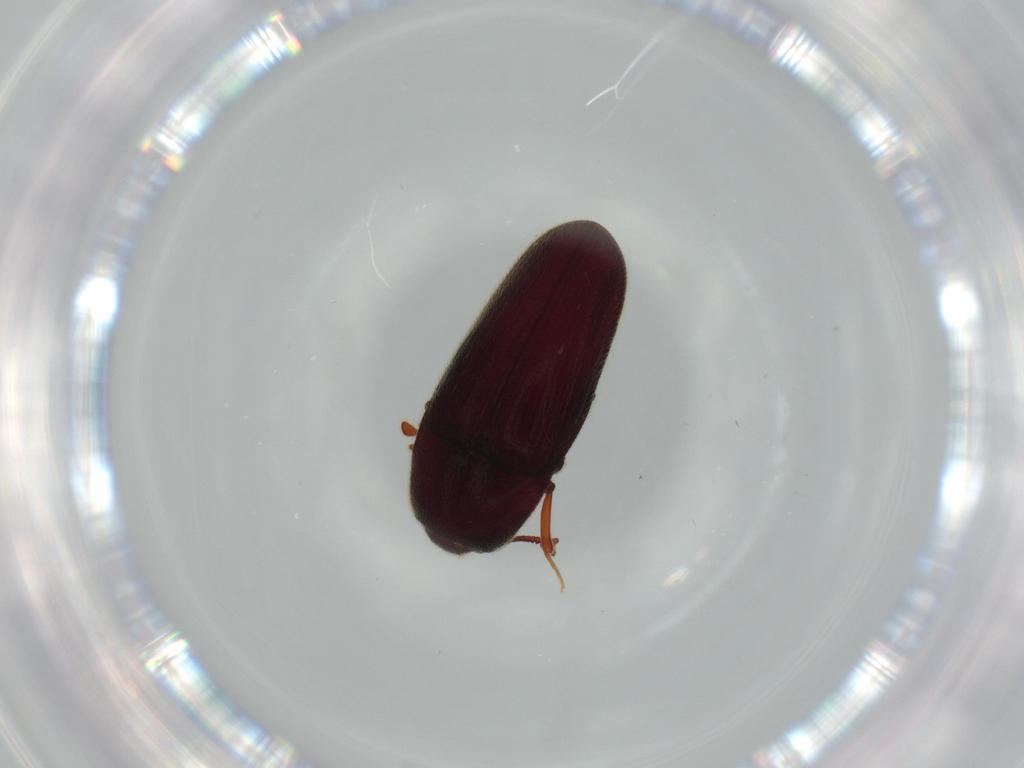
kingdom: Animalia
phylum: Arthropoda
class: Insecta
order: Coleoptera
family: Throscidae
